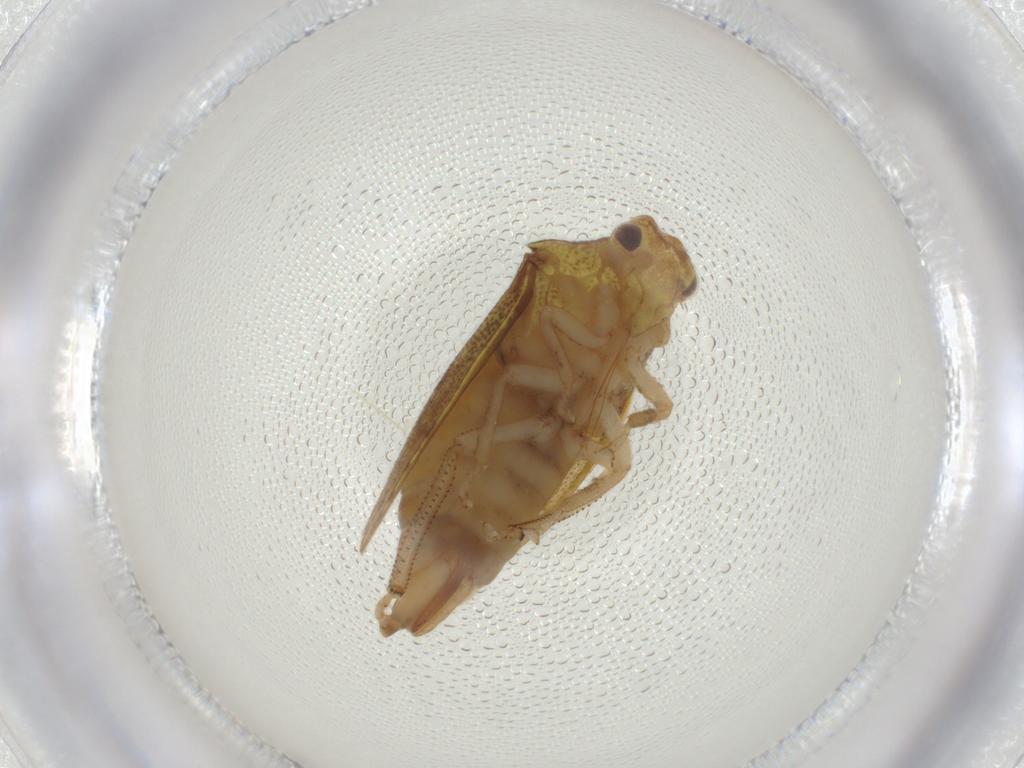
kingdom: Animalia
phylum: Arthropoda
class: Insecta
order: Hemiptera
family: Aetalionidae
